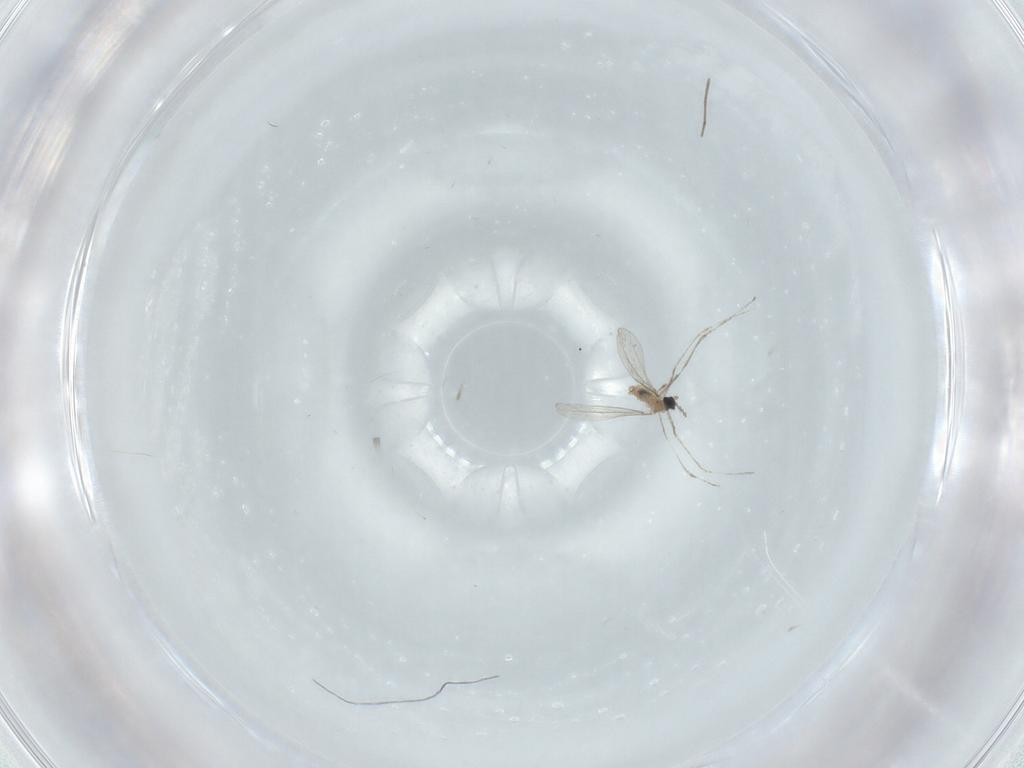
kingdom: Animalia
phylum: Arthropoda
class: Insecta
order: Diptera
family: Cecidomyiidae
